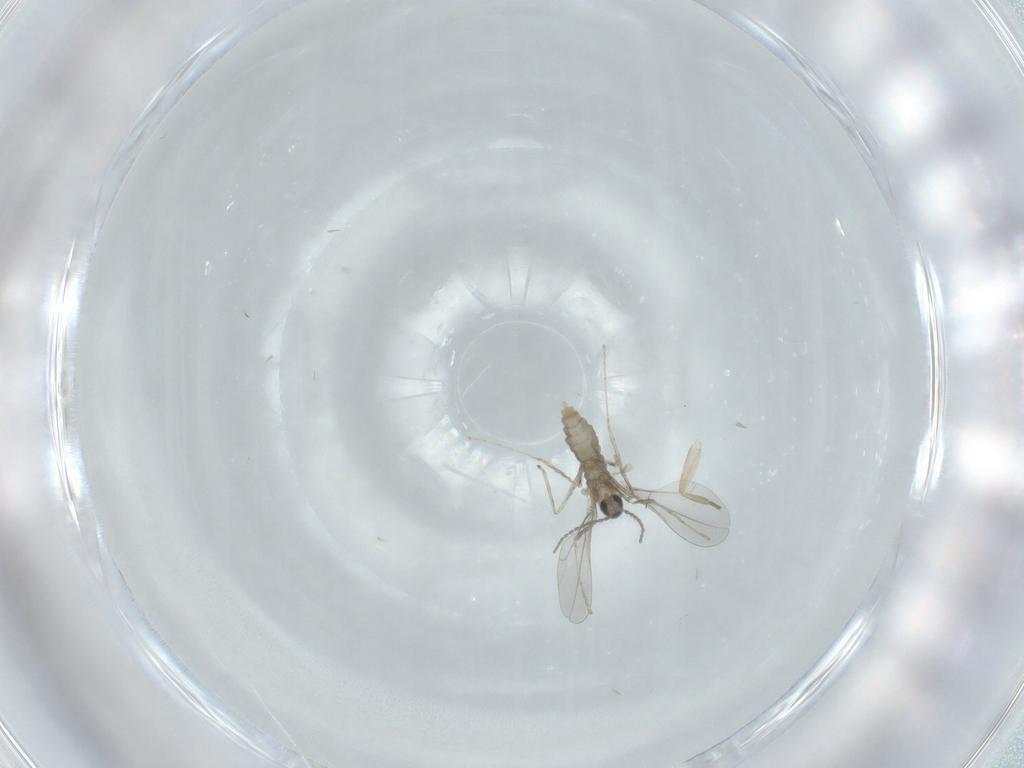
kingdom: Animalia
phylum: Arthropoda
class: Insecta
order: Diptera
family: Cecidomyiidae
